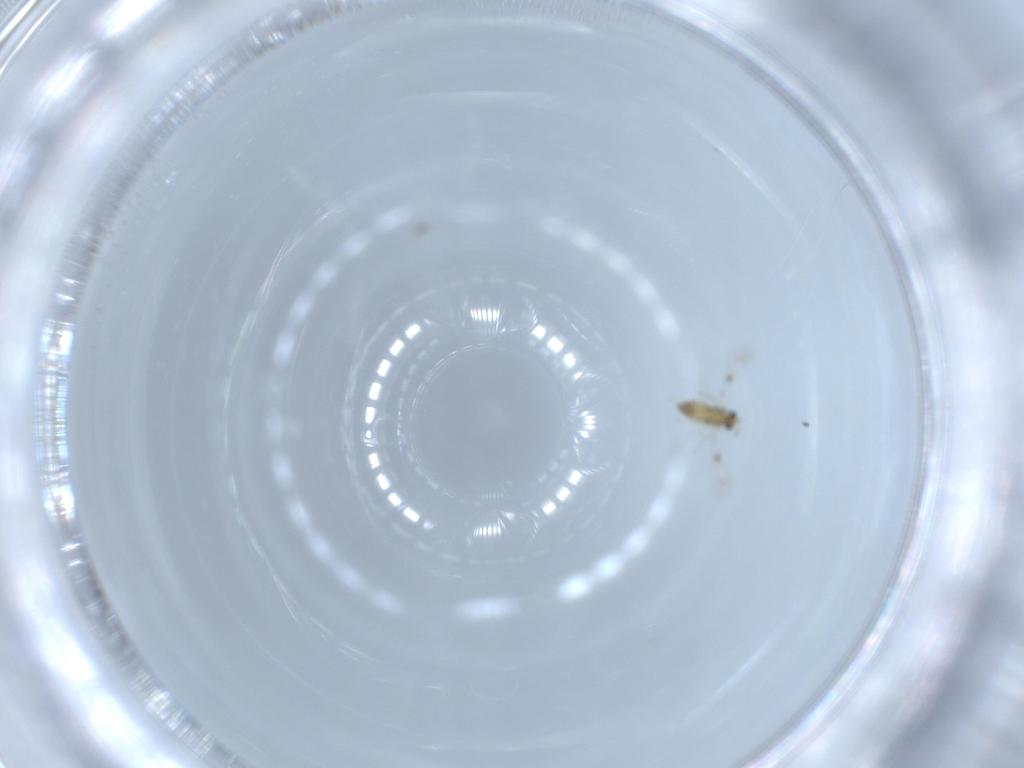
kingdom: Animalia
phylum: Arthropoda
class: Insecta
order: Hymenoptera
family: Trichogrammatidae
